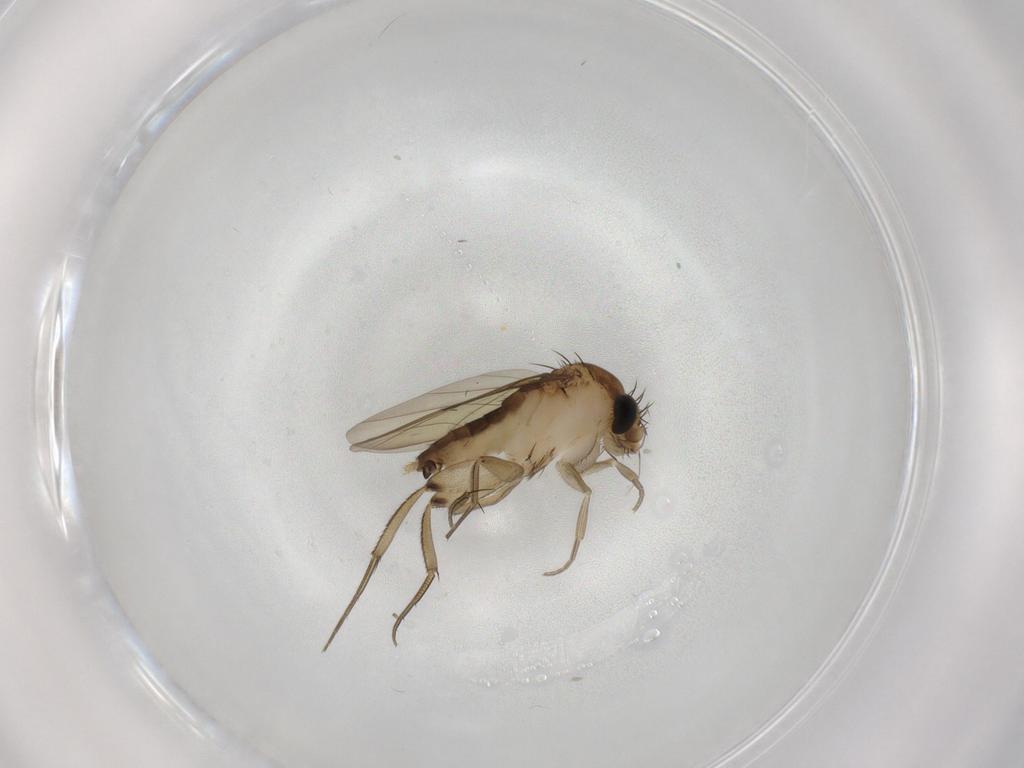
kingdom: Animalia
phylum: Arthropoda
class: Insecta
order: Diptera
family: Phoridae
